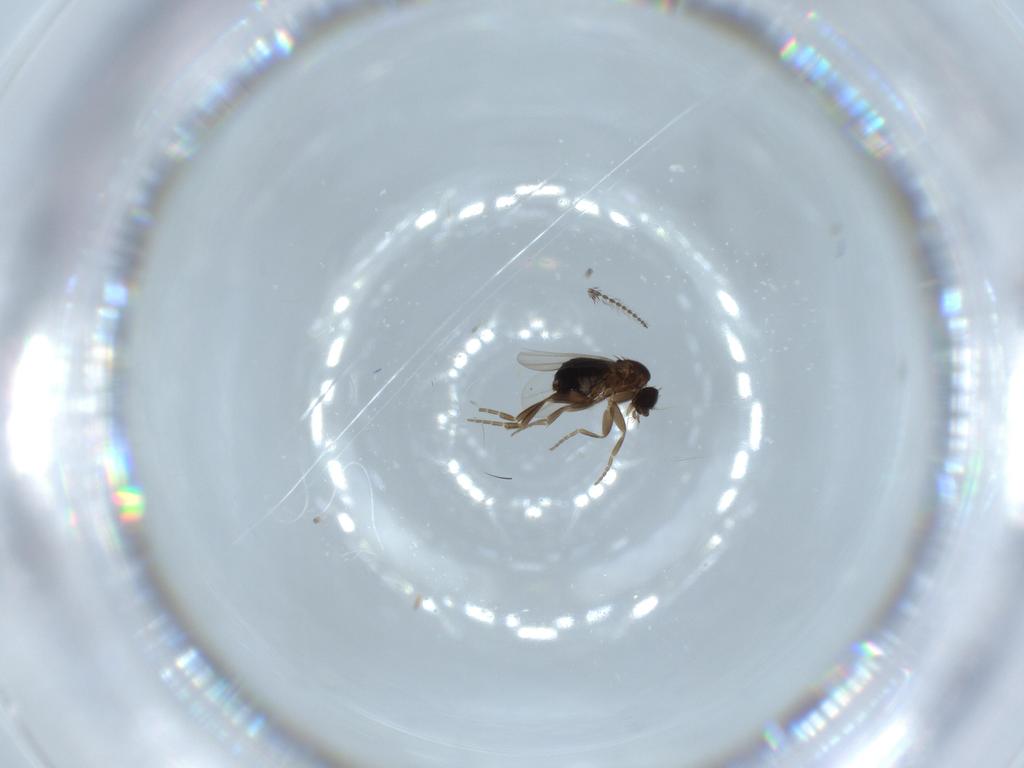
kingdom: Animalia
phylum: Arthropoda
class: Insecta
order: Diptera
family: Phoridae
